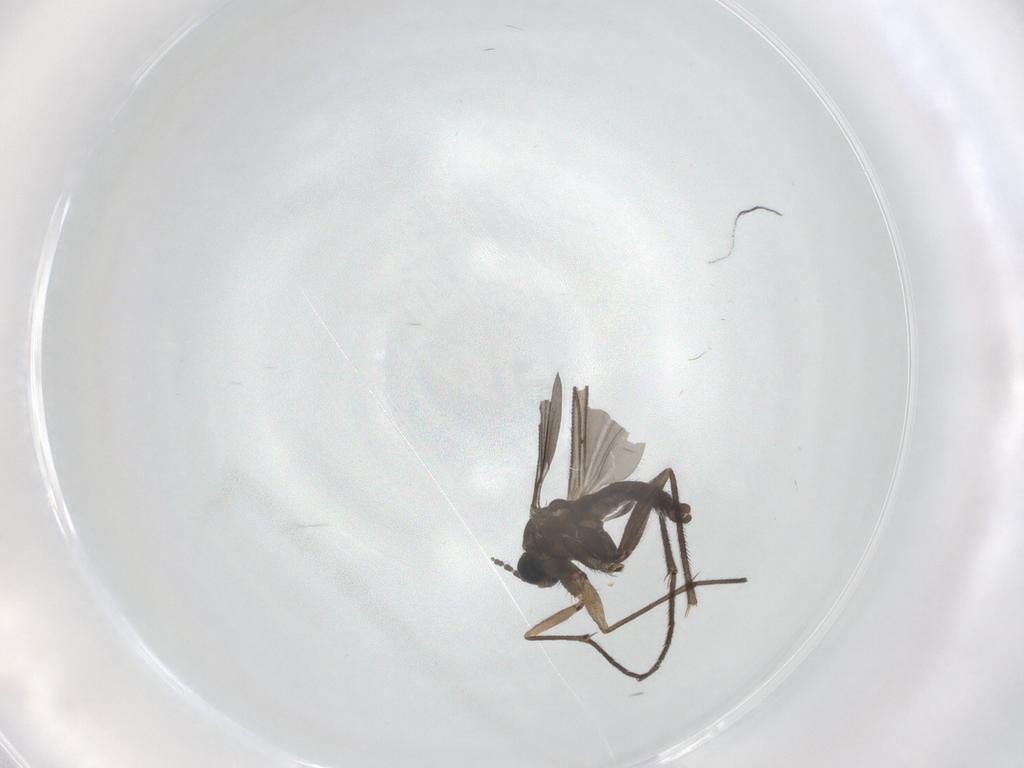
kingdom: Animalia
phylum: Arthropoda
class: Insecta
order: Diptera
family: Sciaridae
